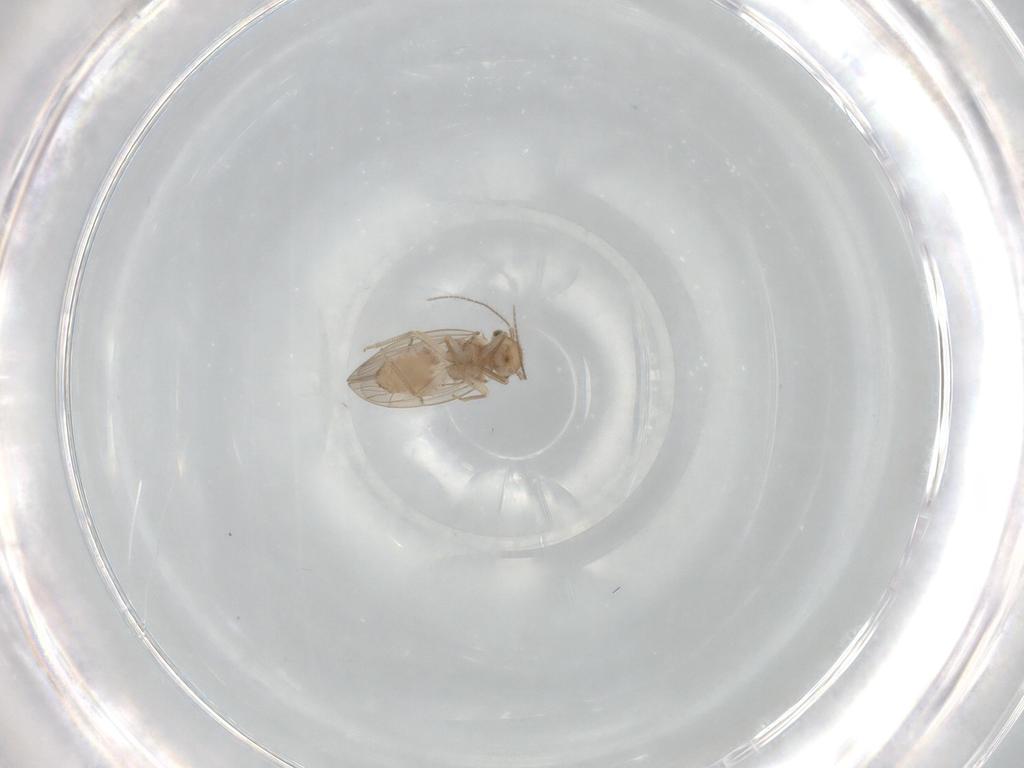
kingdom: Animalia
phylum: Arthropoda
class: Insecta
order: Psocodea
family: Ectopsocidae
